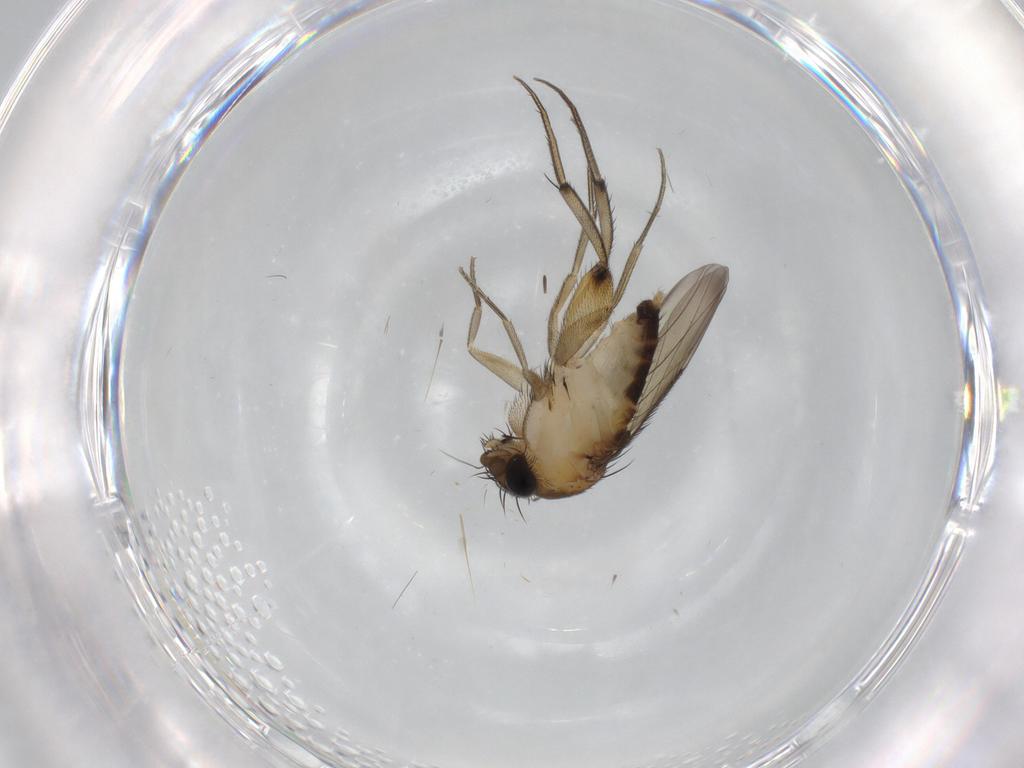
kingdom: Animalia
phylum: Arthropoda
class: Insecta
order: Diptera
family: Phoridae
